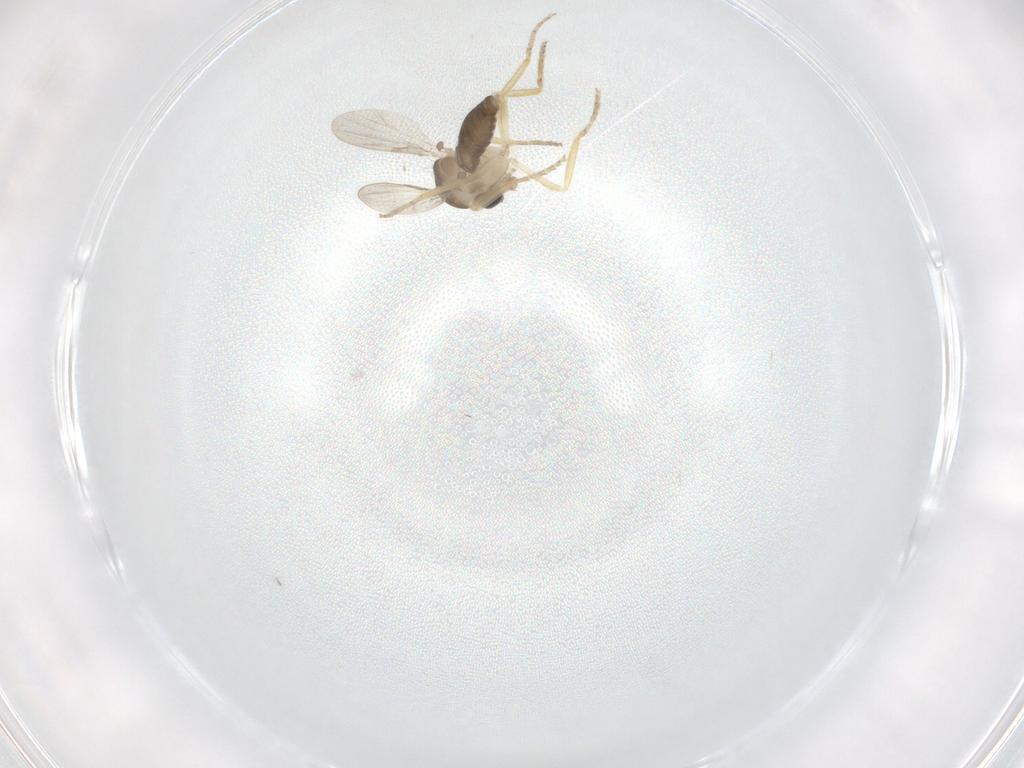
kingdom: Animalia
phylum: Arthropoda
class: Insecta
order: Diptera
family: Ceratopogonidae
